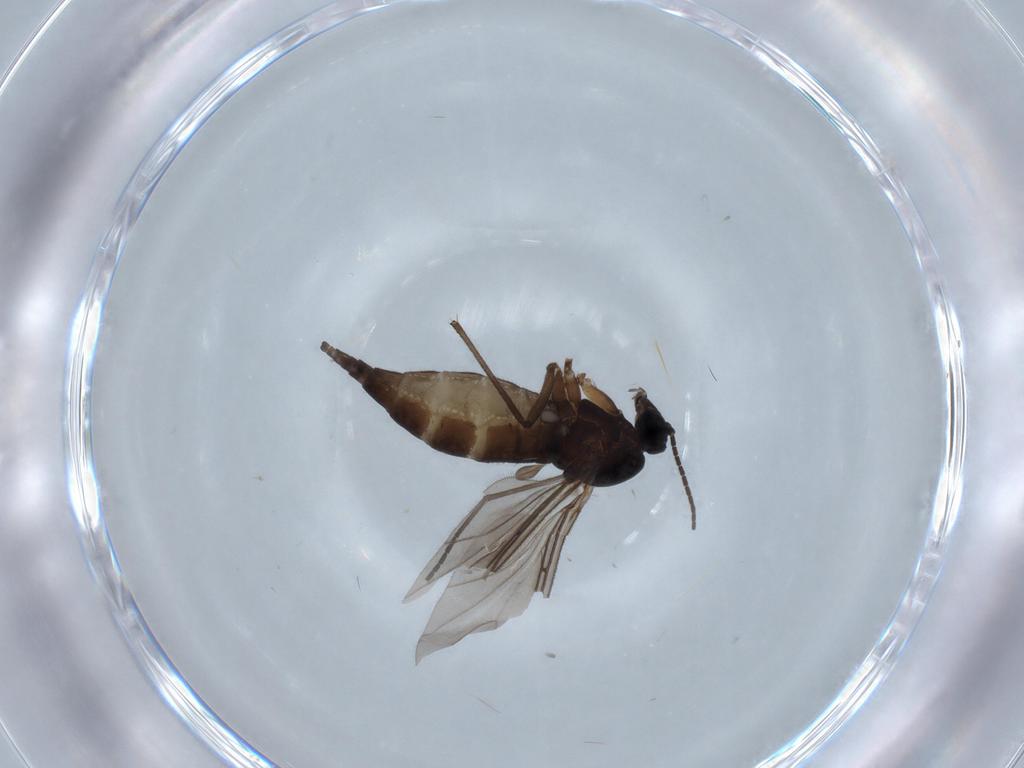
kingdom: Animalia
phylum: Arthropoda
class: Insecta
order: Diptera
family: Sciaridae
